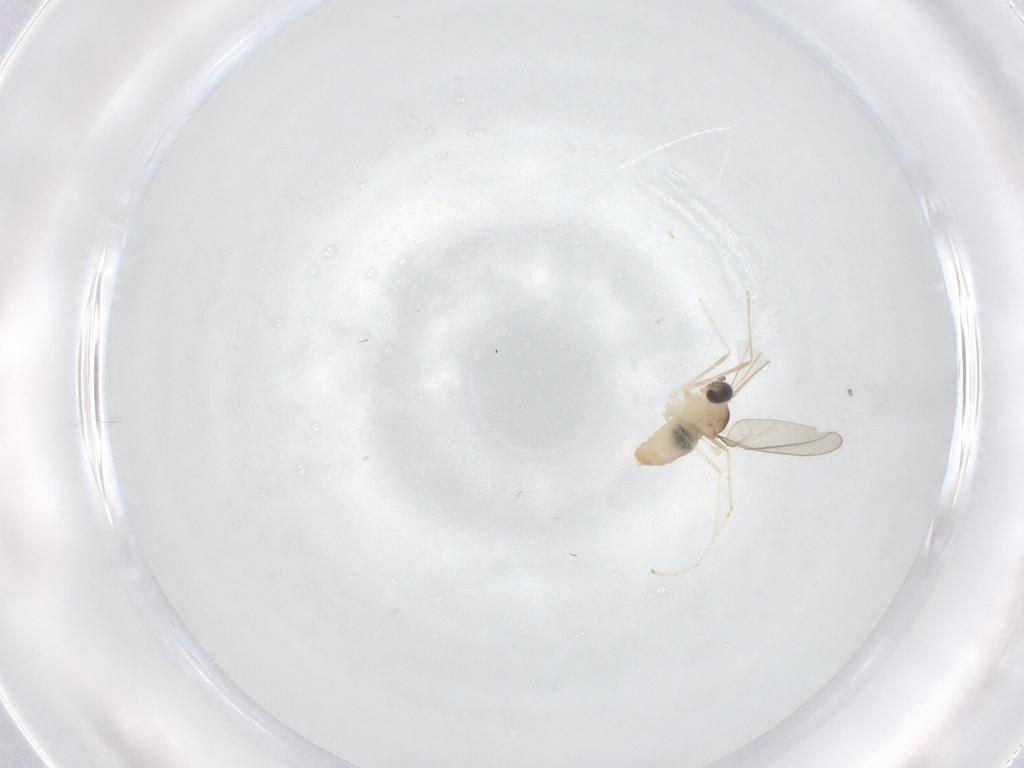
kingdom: Animalia
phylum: Arthropoda
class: Insecta
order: Diptera
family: Cecidomyiidae
